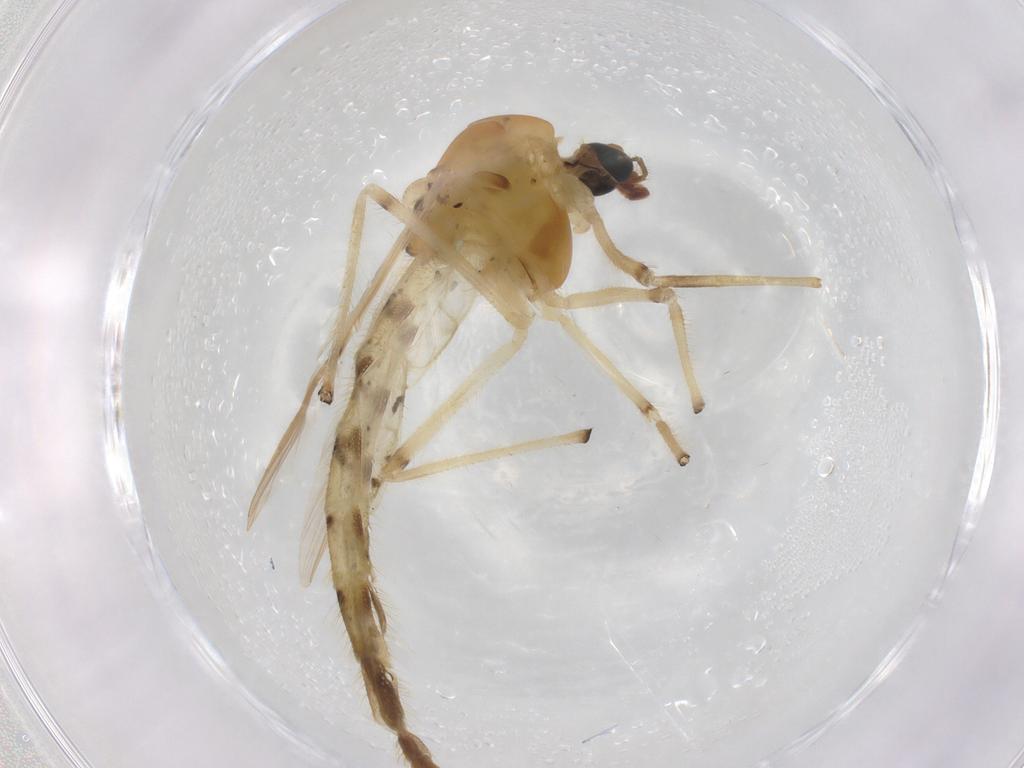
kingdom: Animalia
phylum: Arthropoda
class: Insecta
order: Diptera
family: Chironomidae
